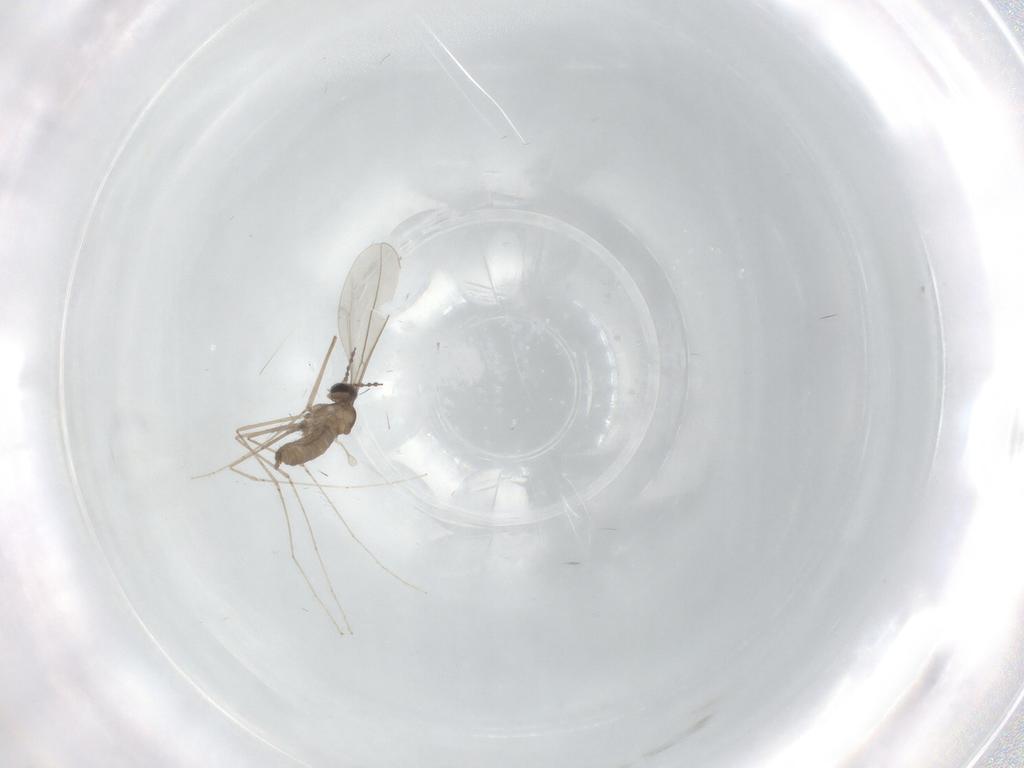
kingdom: Animalia
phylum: Arthropoda
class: Insecta
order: Diptera
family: Cecidomyiidae
